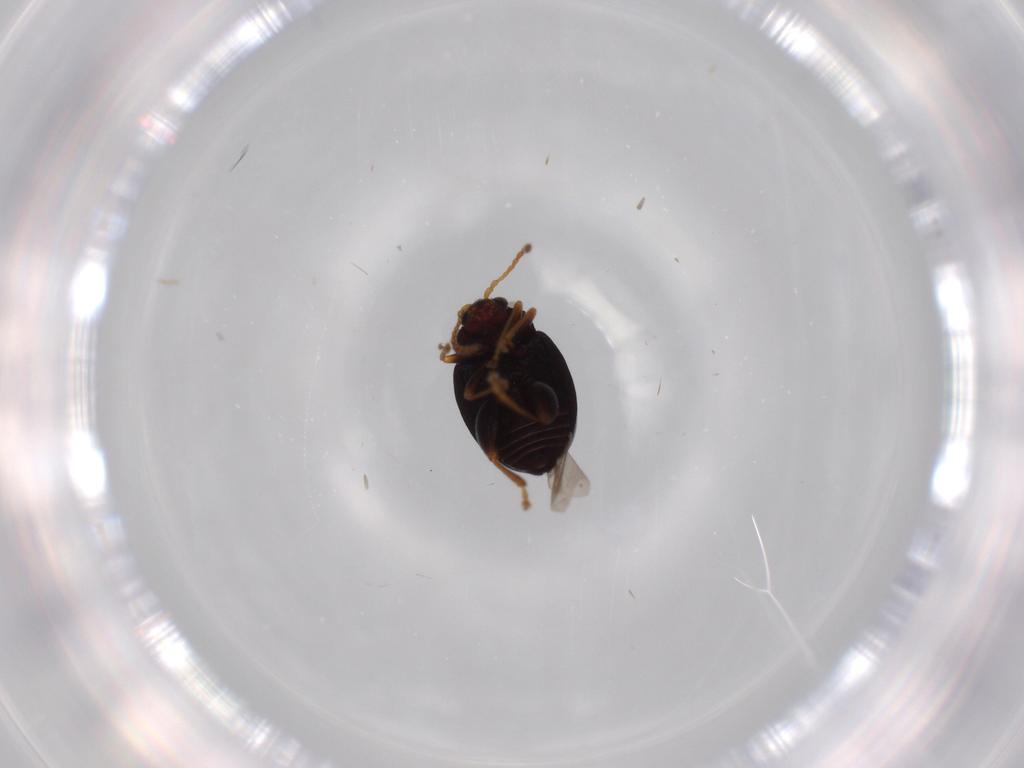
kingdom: Animalia
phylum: Arthropoda
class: Insecta
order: Coleoptera
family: Chrysomelidae
